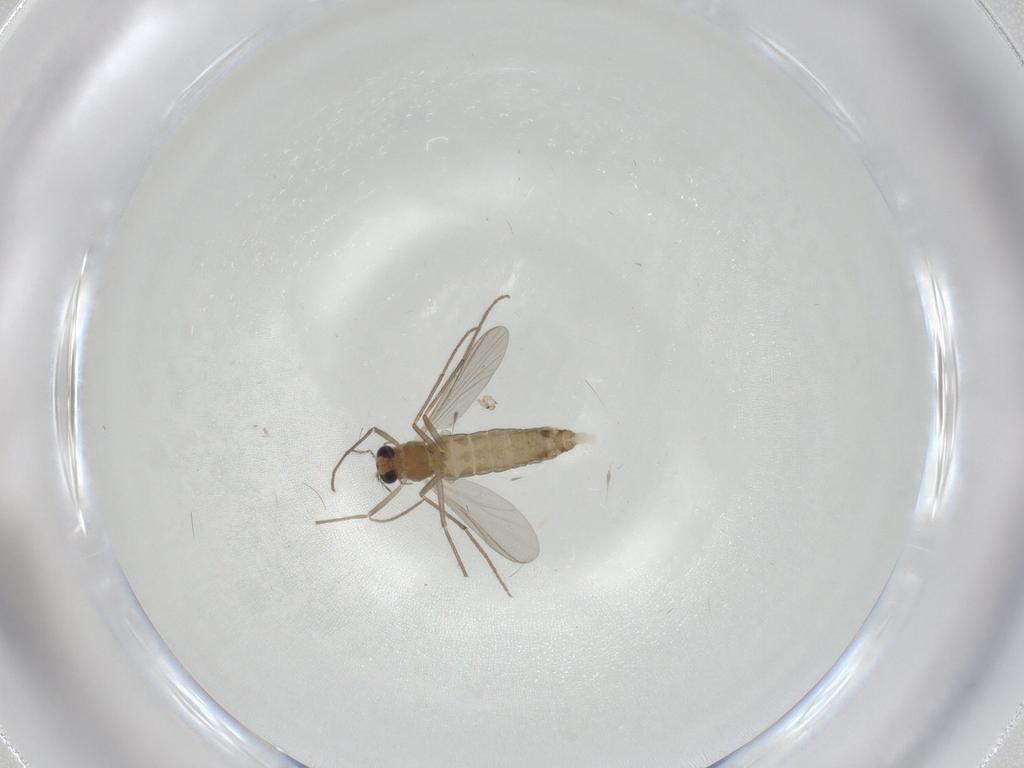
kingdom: Animalia
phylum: Arthropoda
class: Insecta
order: Diptera
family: Chironomidae
